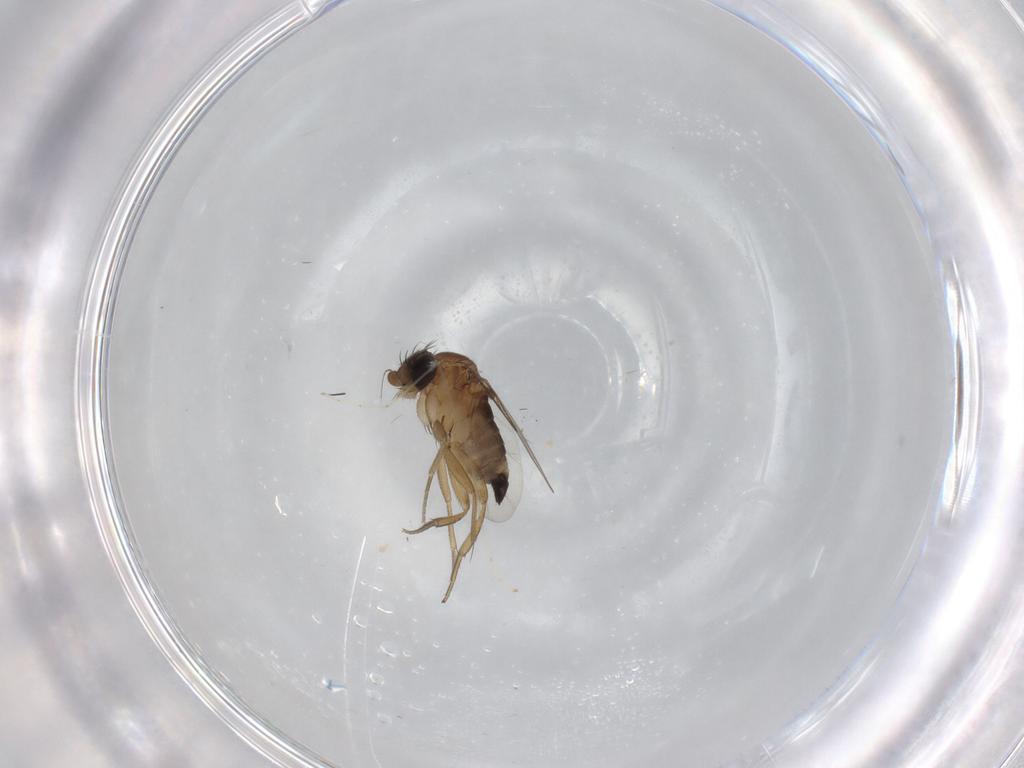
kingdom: Animalia
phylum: Arthropoda
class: Insecta
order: Diptera
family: Phoridae
